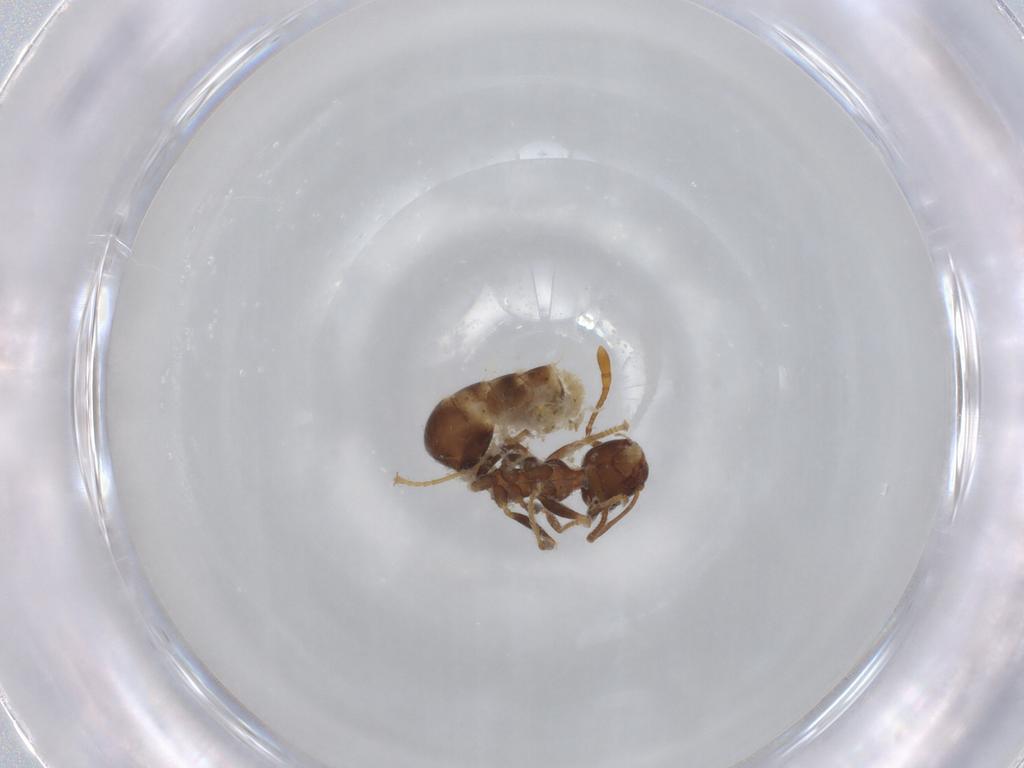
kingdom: Animalia
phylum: Arthropoda
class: Insecta
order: Hymenoptera
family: Formicidae
